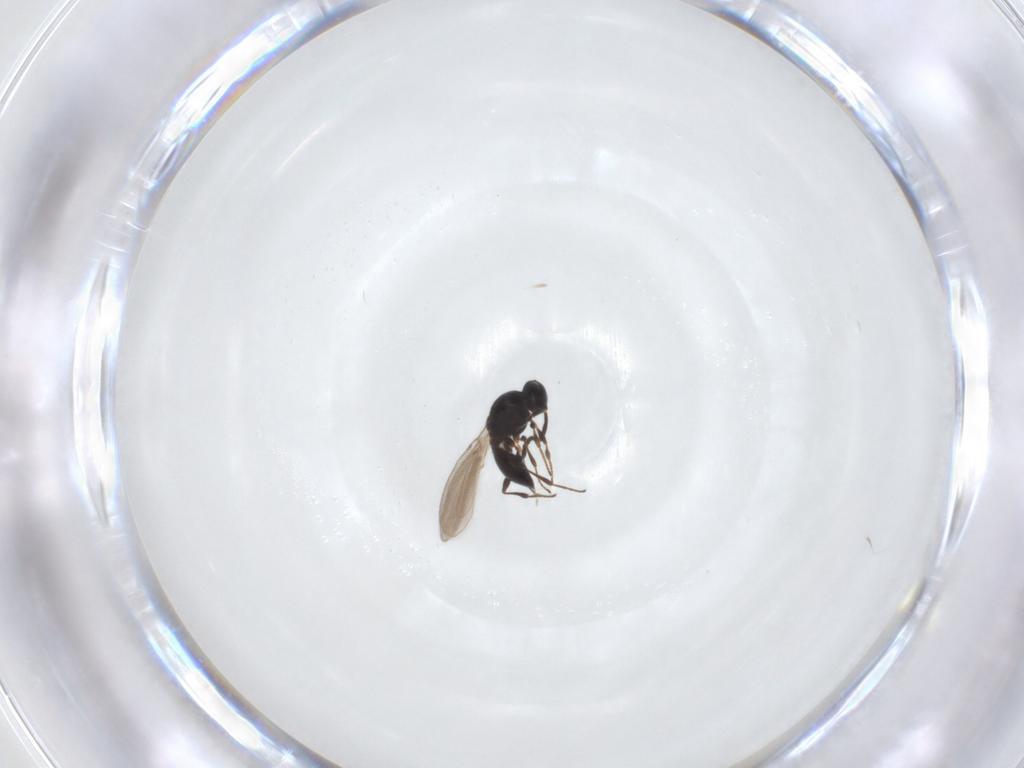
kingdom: Animalia
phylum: Arthropoda
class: Insecta
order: Hymenoptera
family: Platygastridae
